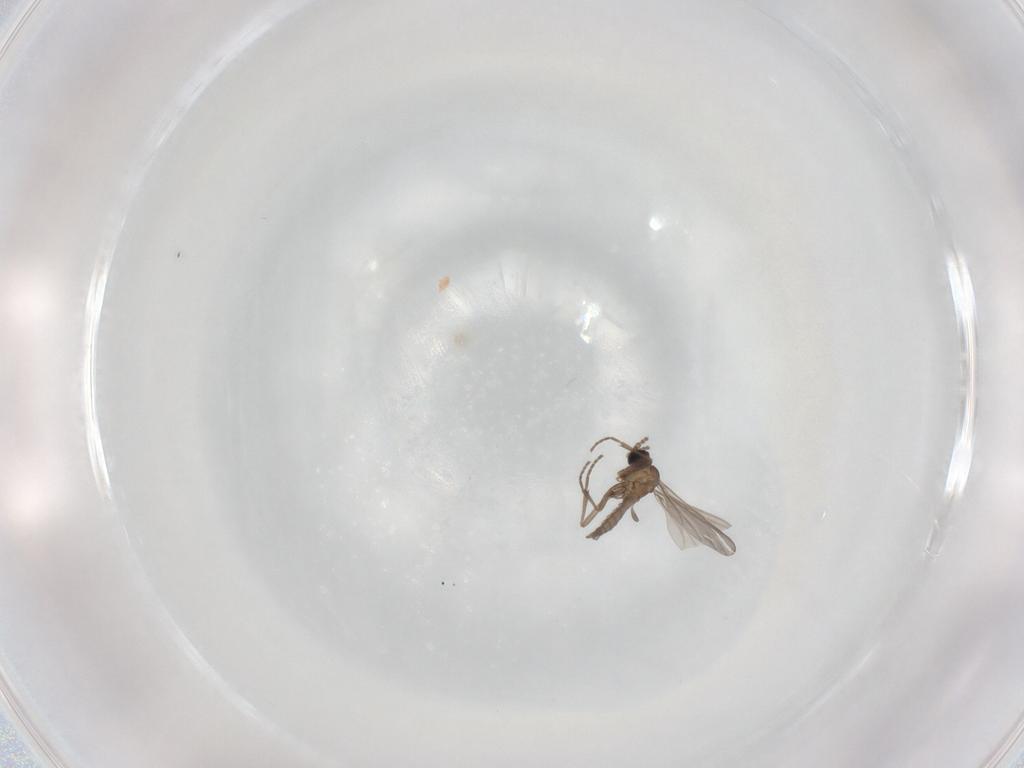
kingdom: Animalia
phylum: Arthropoda
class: Insecta
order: Diptera
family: Sciaridae
